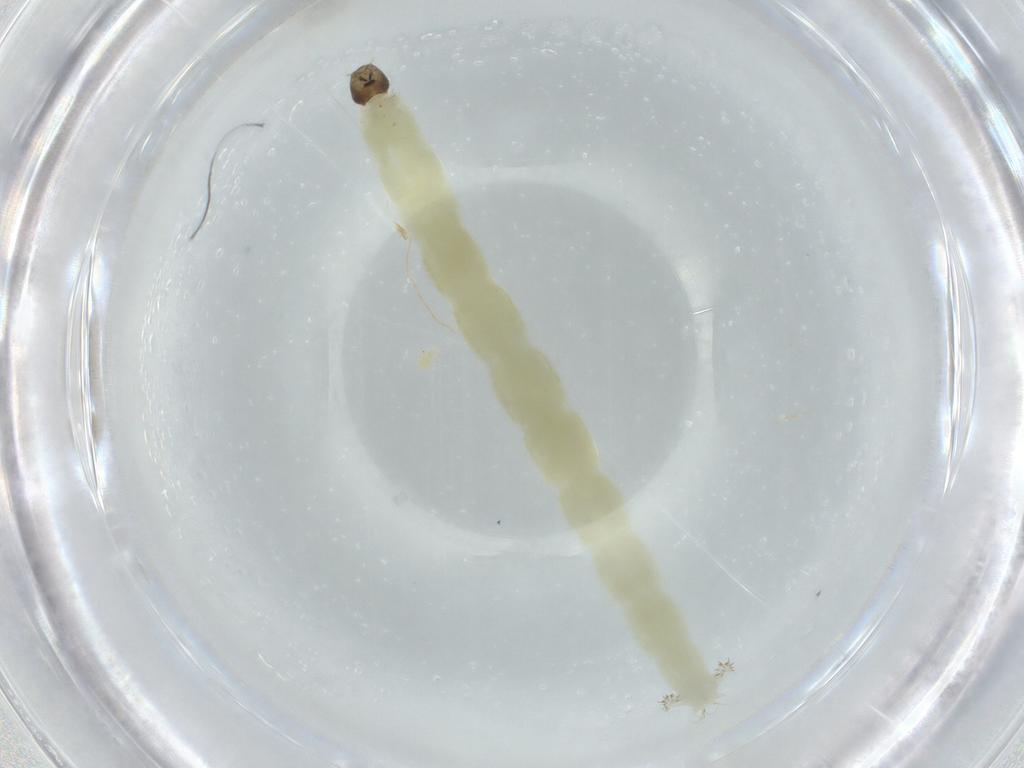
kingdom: Animalia
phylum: Arthropoda
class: Insecta
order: Diptera
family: Chironomidae
